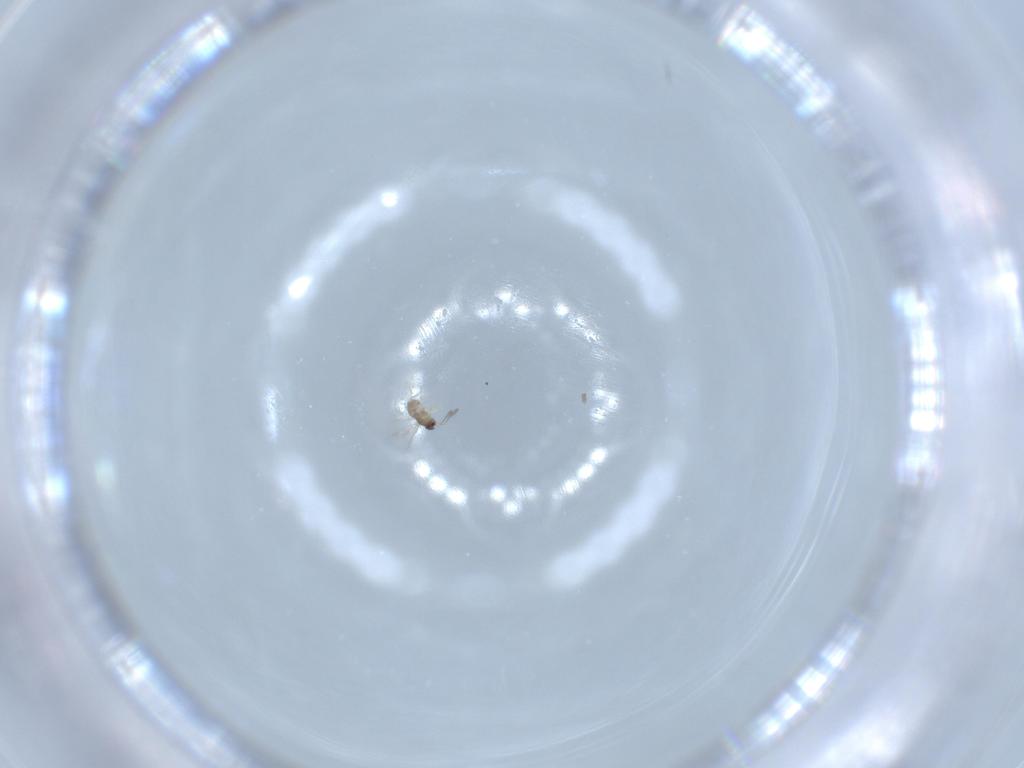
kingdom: Animalia
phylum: Arthropoda
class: Insecta
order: Hymenoptera
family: Mymaridae
